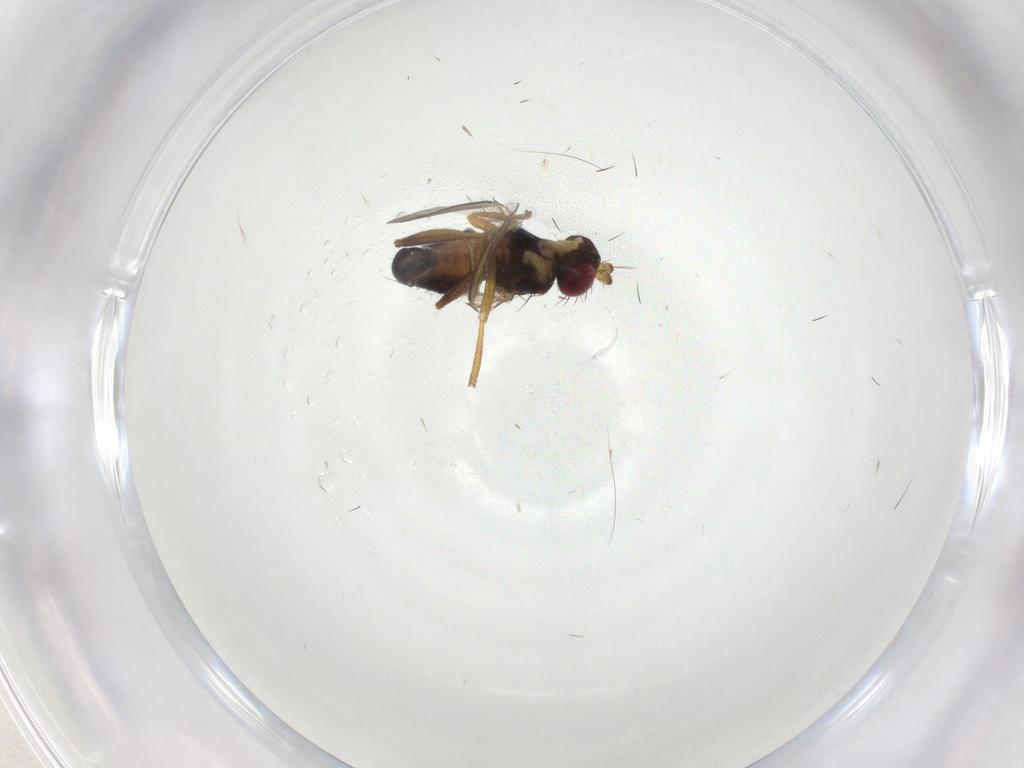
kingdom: Animalia
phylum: Arthropoda
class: Insecta
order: Diptera
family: Cypselosomatidae
